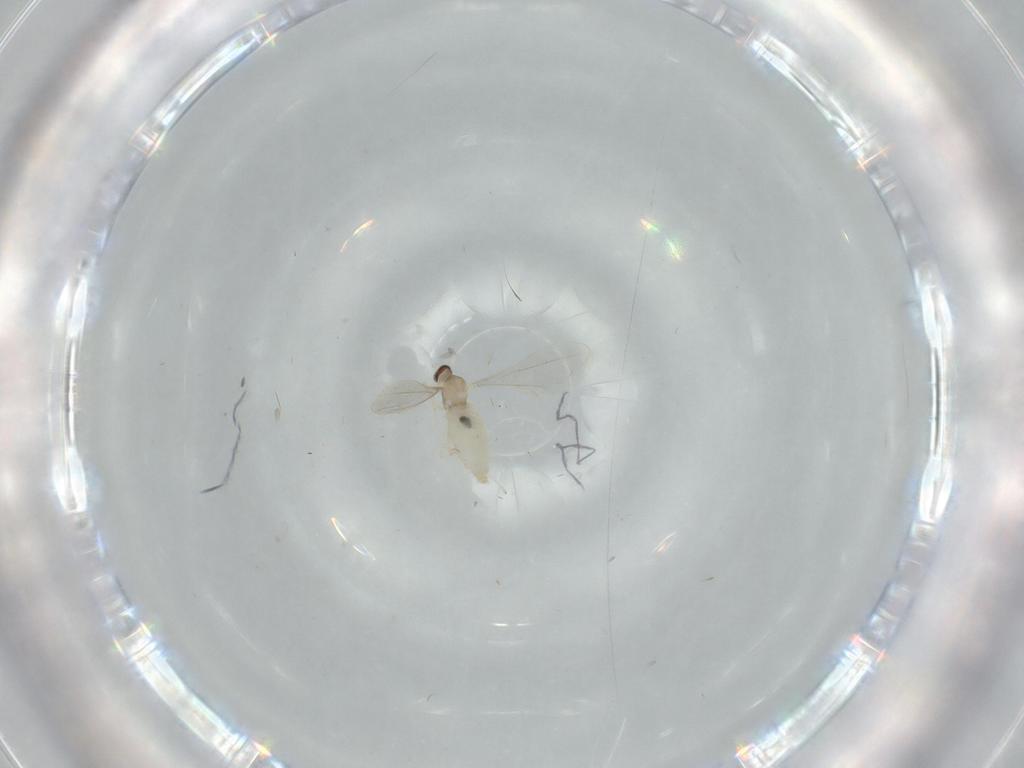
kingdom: Animalia
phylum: Arthropoda
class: Insecta
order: Diptera
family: Cecidomyiidae
